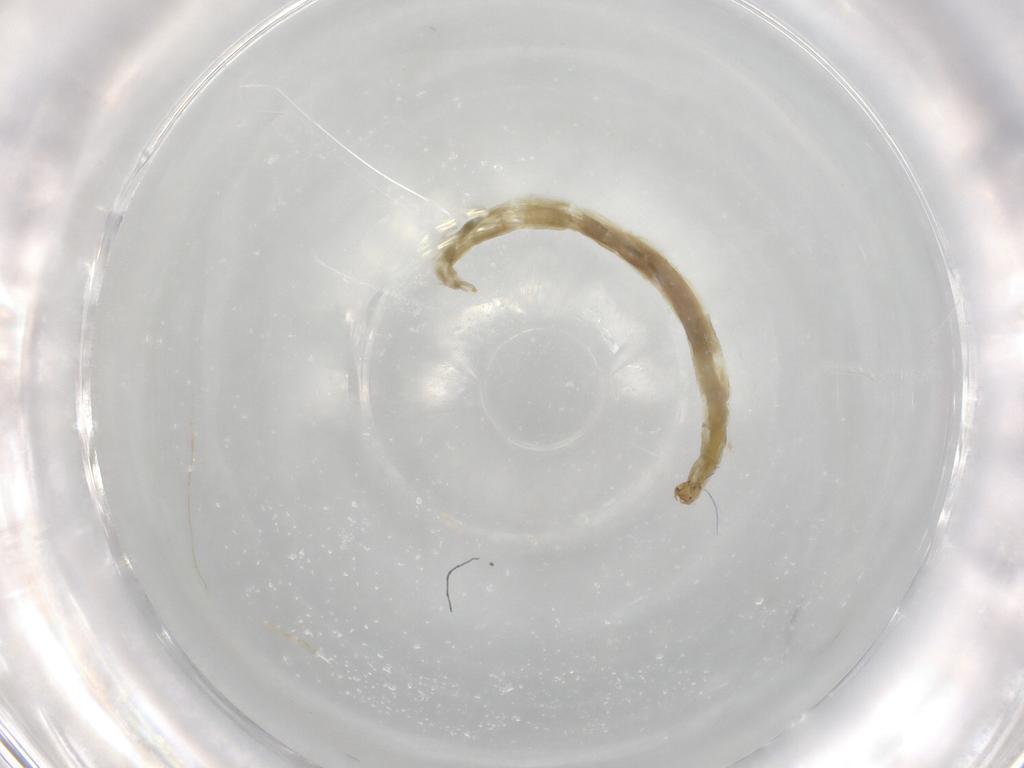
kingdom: Animalia
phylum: Arthropoda
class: Insecta
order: Diptera
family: Chironomidae
